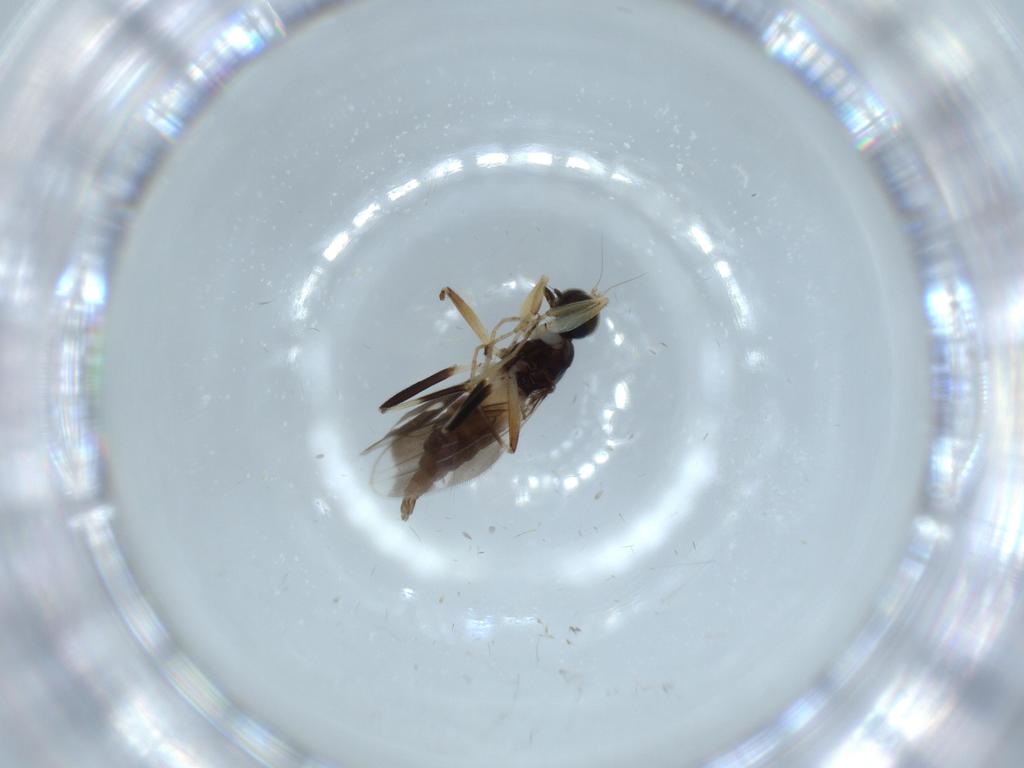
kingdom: Animalia
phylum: Arthropoda
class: Insecta
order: Diptera
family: Hybotidae
